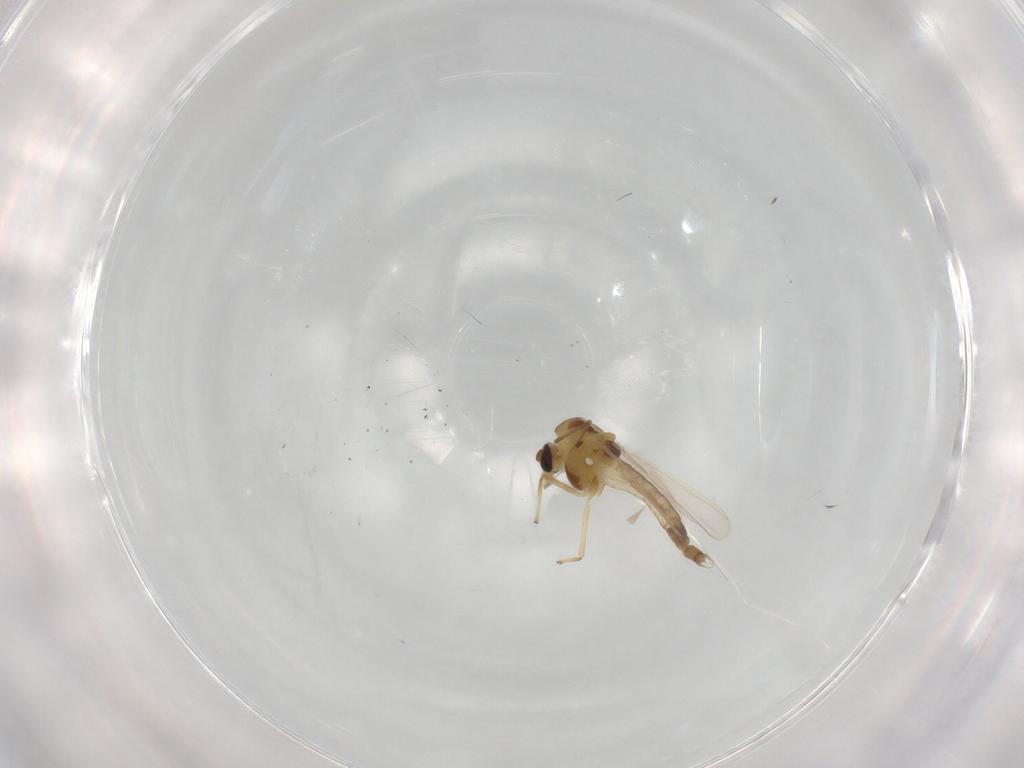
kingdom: Animalia
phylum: Arthropoda
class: Insecta
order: Diptera
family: Chironomidae
